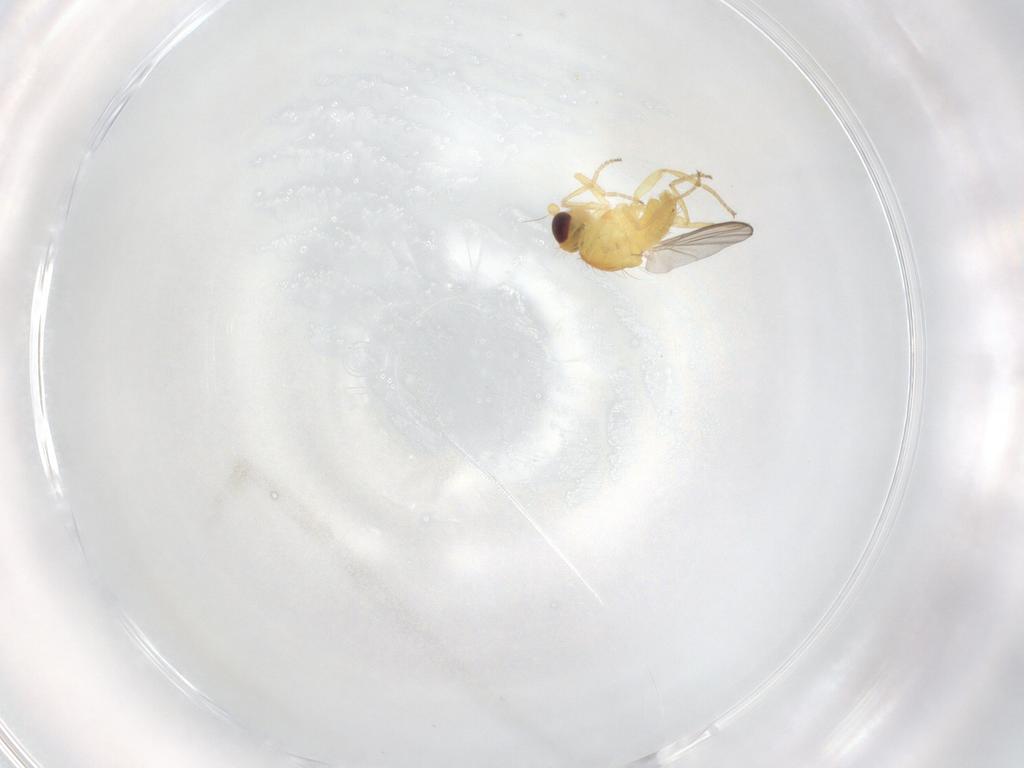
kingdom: Animalia
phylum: Arthropoda
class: Insecta
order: Diptera
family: Agromyzidae
